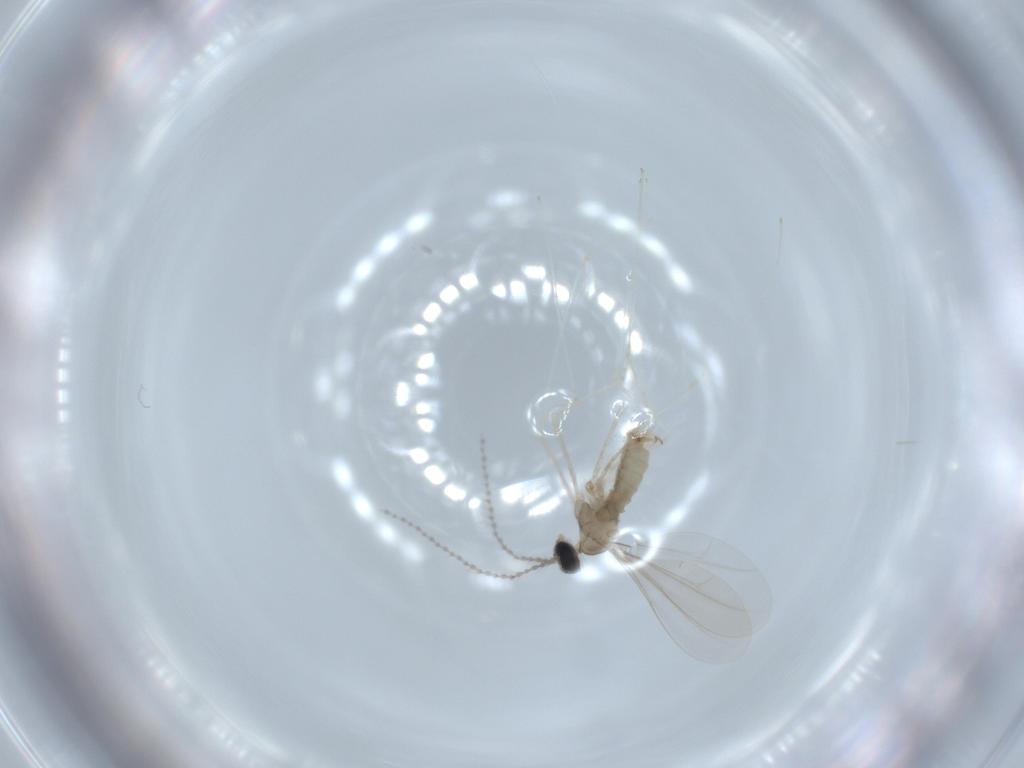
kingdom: Animalia
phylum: Arthropoda
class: Insecta
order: Diptera
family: Cecidomyiidae
